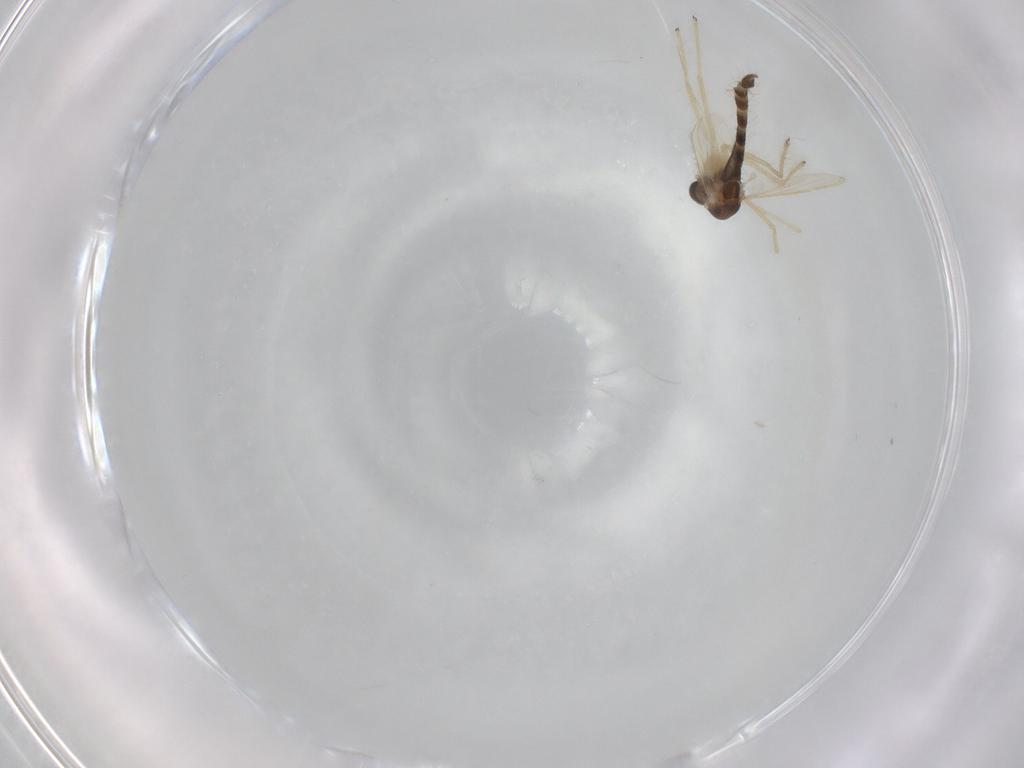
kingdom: Animalia
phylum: Arthropoda
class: Insecta
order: Diptera
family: Cecidomyiidae
